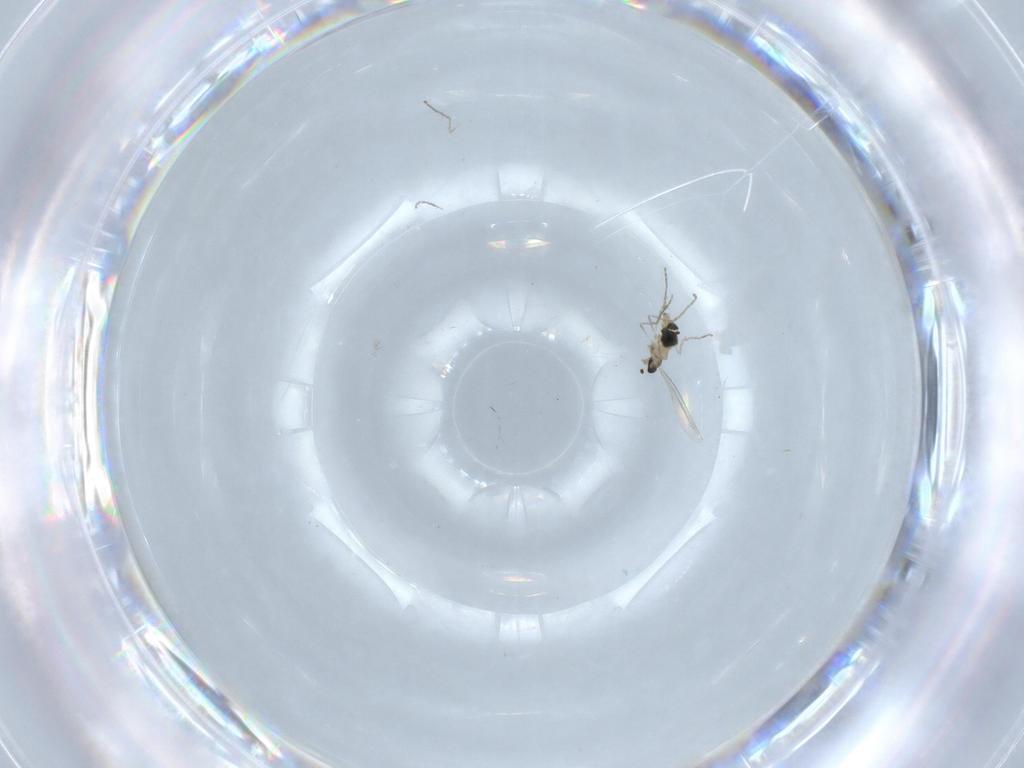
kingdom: Animalia
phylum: Arthropoda
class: Insecta
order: Diptera
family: Cecidomyiidae
